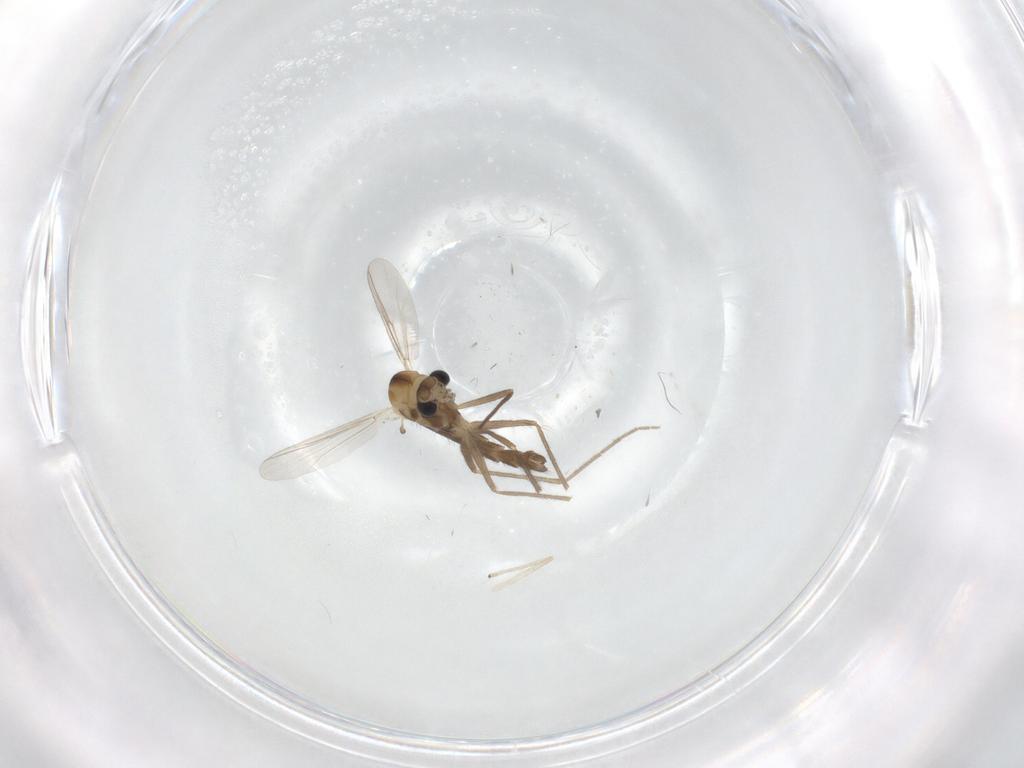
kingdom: Animalia
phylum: Arthropoda
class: Insecta
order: Diptera
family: Chironomidae
